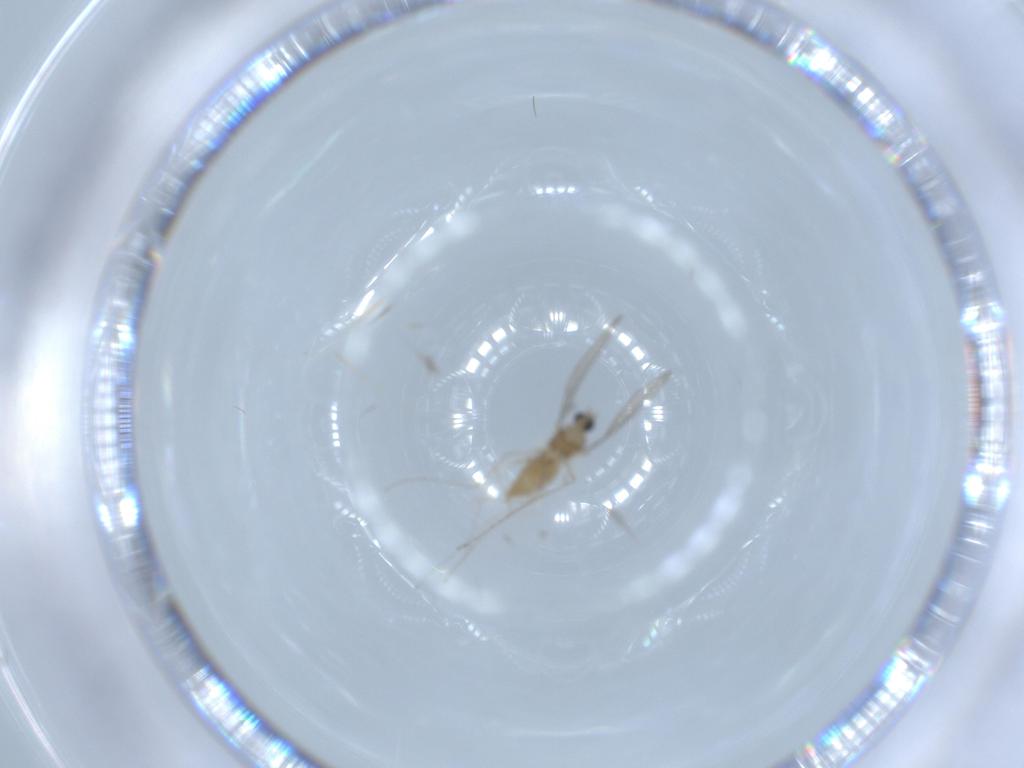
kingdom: Animalia
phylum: Arthropoda
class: Insecta
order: Diptera
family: Cecidomyiidae
